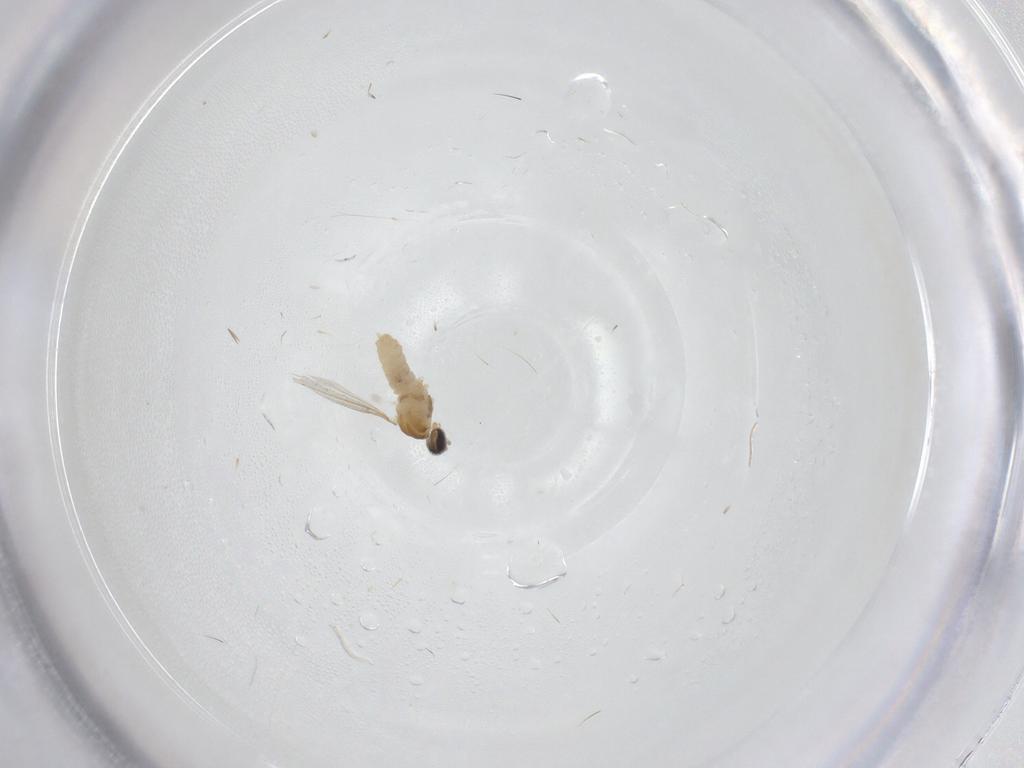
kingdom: Animalia
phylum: Arthropoda
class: Insecta
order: Diptera
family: Cecidomyiidae
